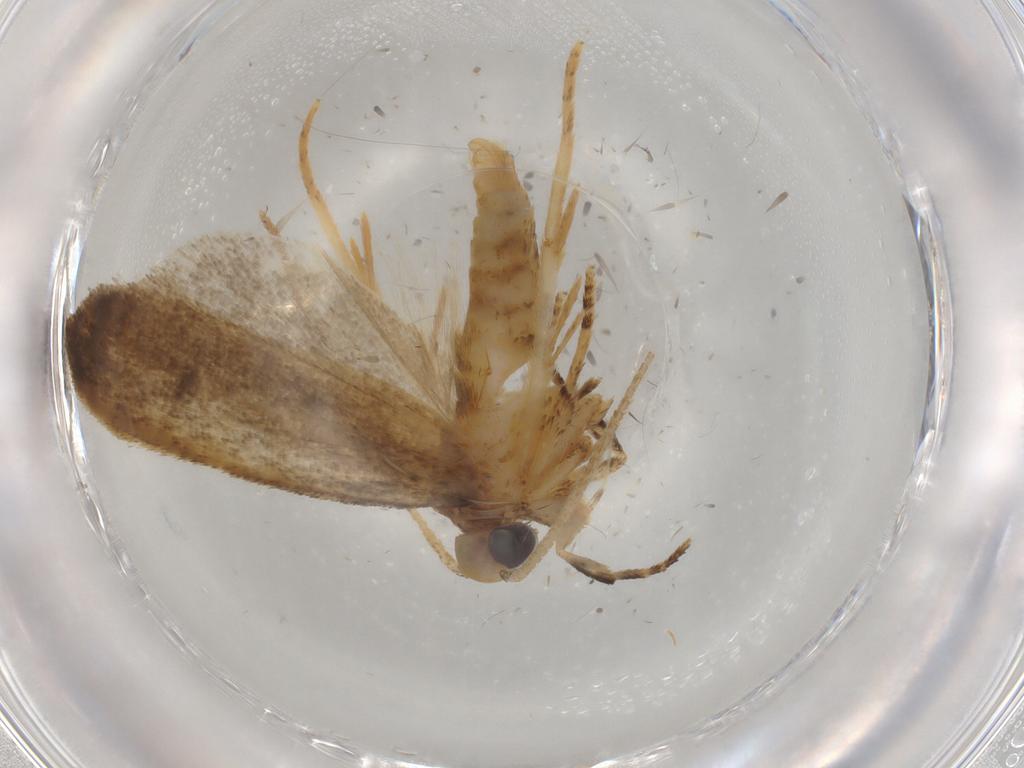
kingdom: Animalia
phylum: Arthropoda
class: Insecta
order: Lepidoptera
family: Autostichidae
